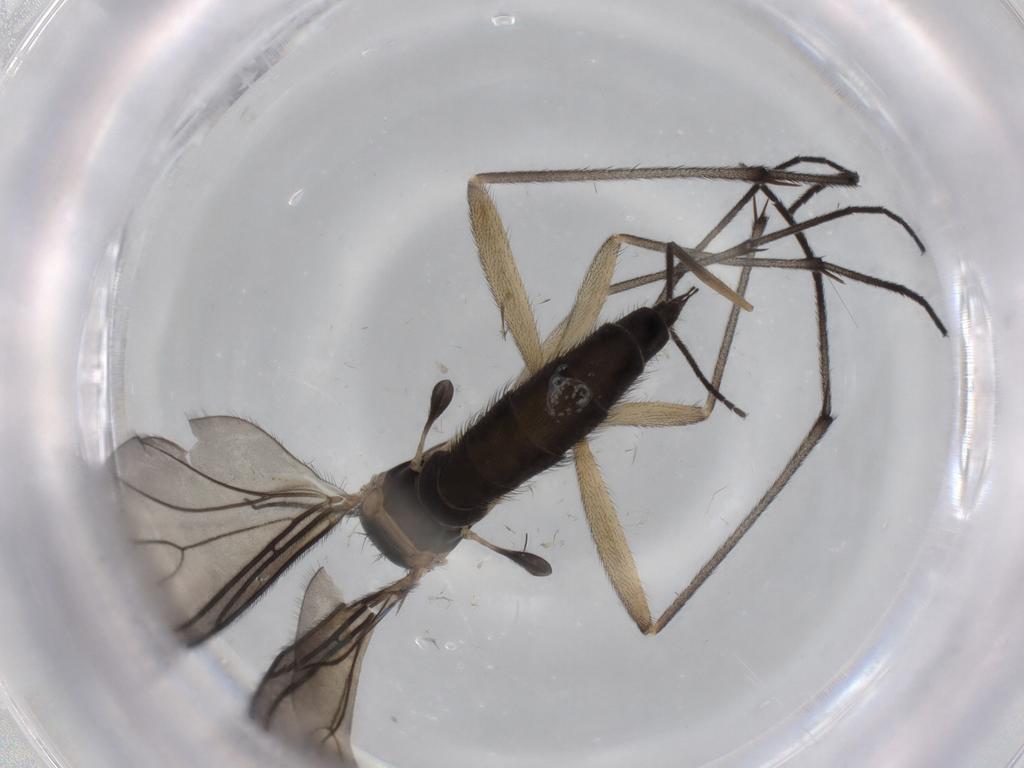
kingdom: Animalia
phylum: Arthropoda
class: Insecta
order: Diptera
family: Sciaridae
